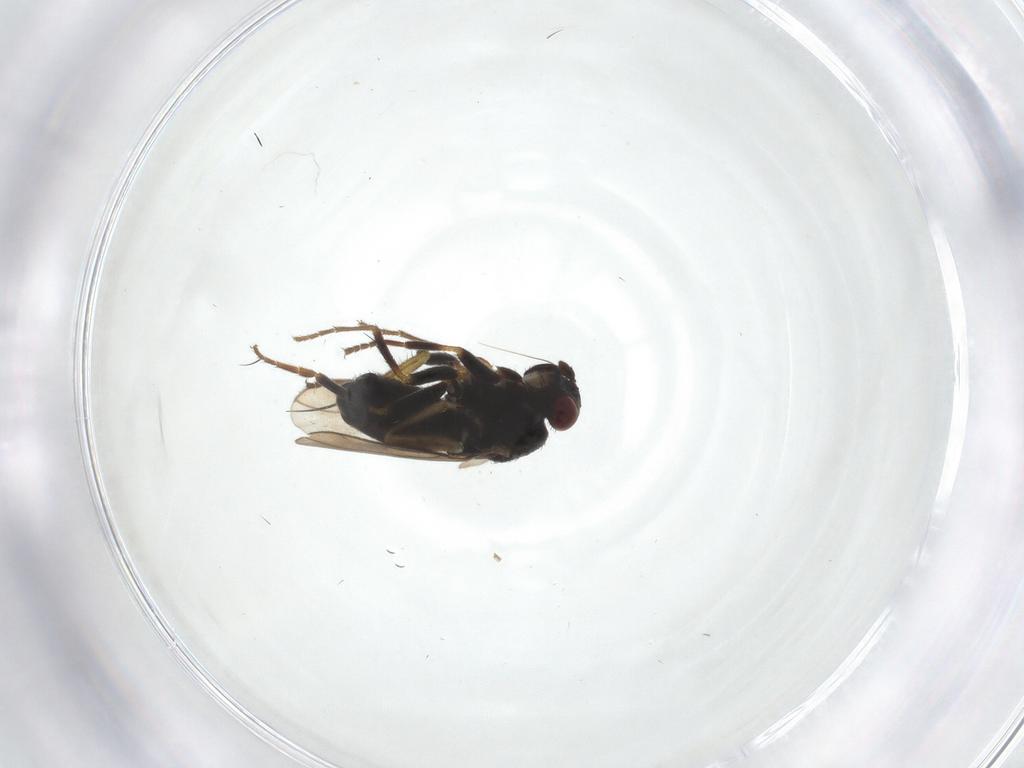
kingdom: Animalia
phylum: Arthropoda
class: Insecta
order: Diptera
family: Sphaeroceridae
